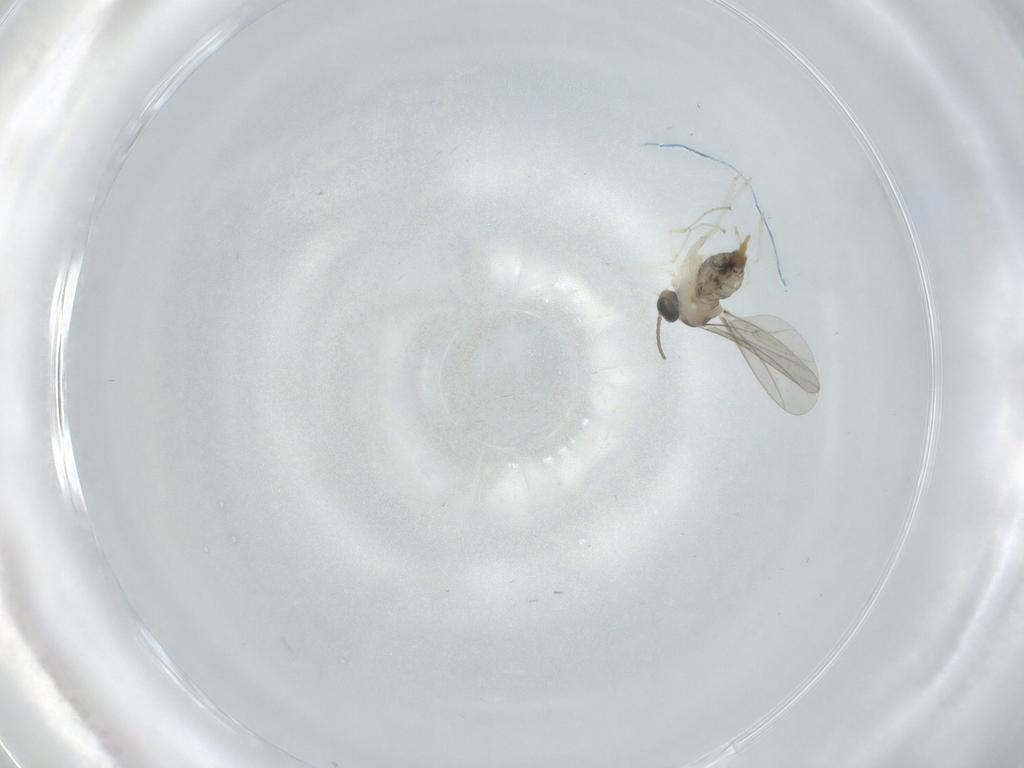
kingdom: Animalia
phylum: Arthropoda
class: Insecta
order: Diptera
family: Cecidomyiidae
